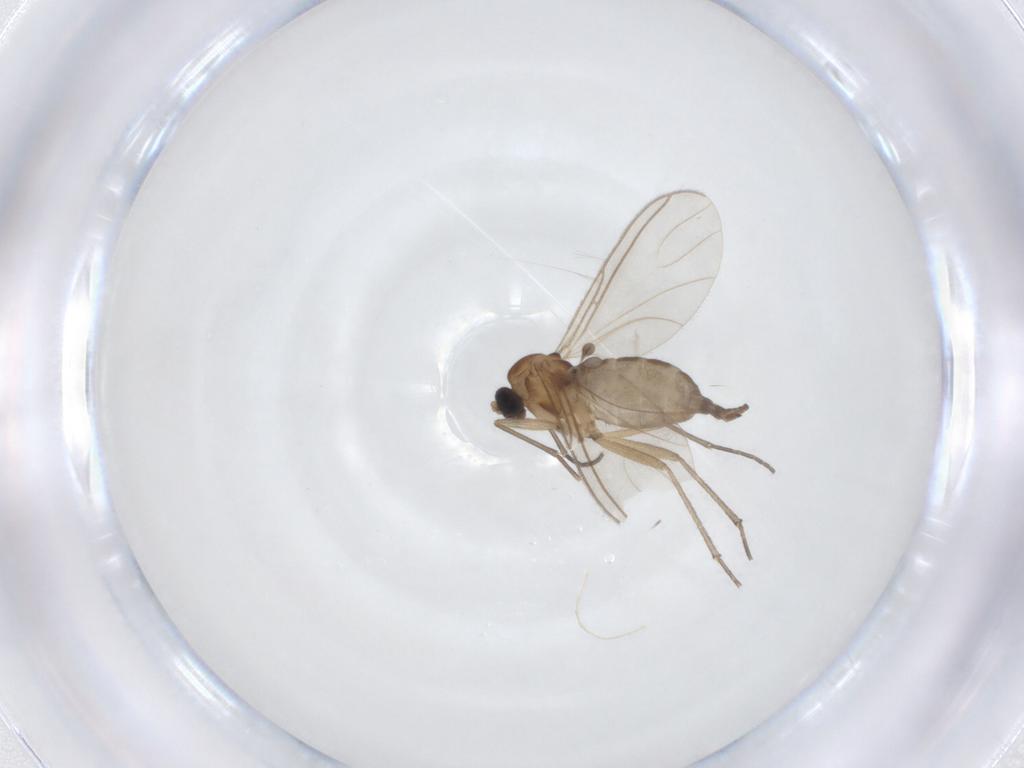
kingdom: Animalia
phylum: Arthropoda
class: Insecta
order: Diptera
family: Sciaridae
